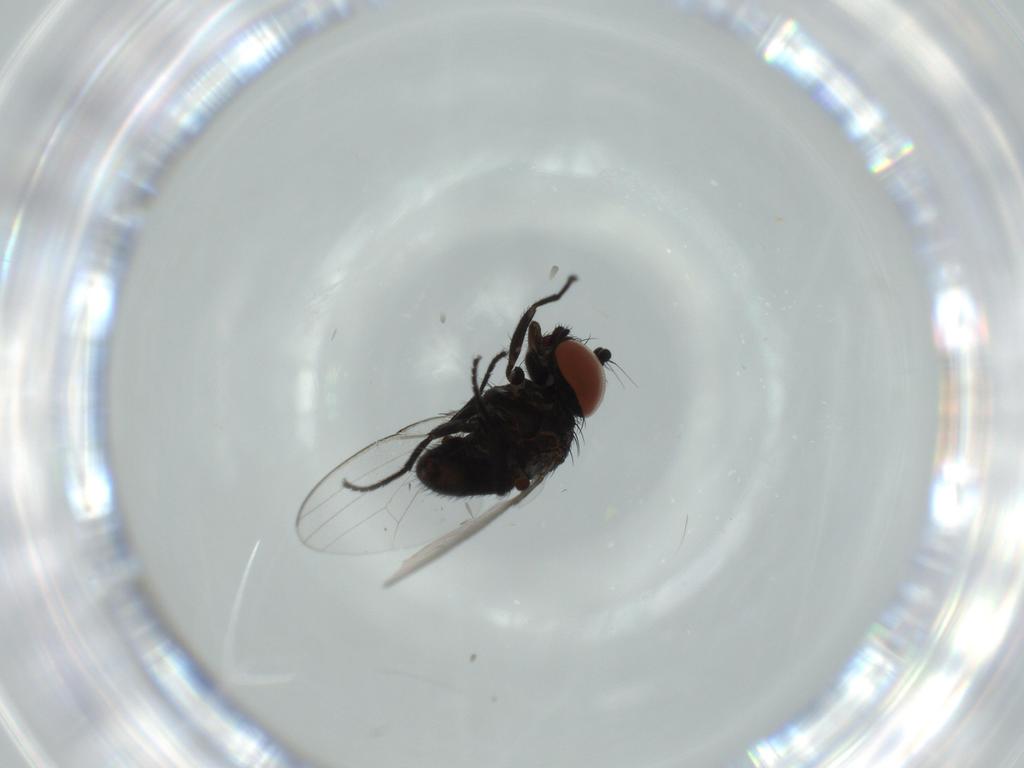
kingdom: Animalia
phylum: Arthropoda
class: Insecta
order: Diptera
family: Milichiidae
